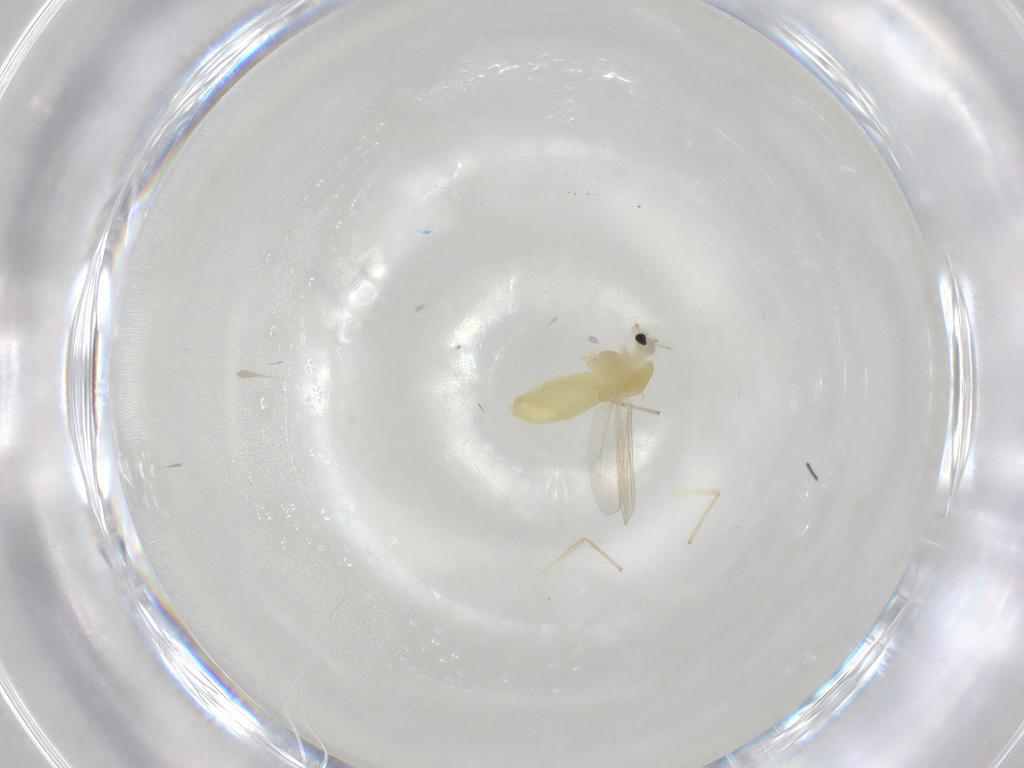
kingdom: Animalia
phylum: Arthropoda
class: Insecta
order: Diptera
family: Chironomidae
